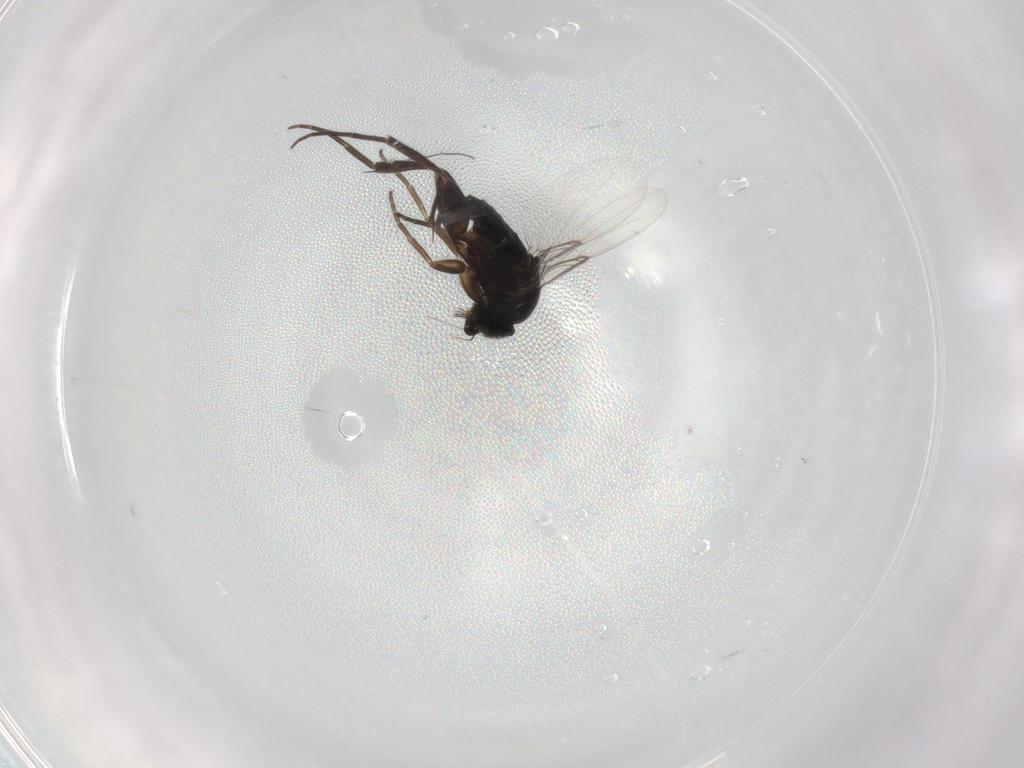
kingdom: Animalia
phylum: Arthropoda
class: Insecta
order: Diptera
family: Phoridae
